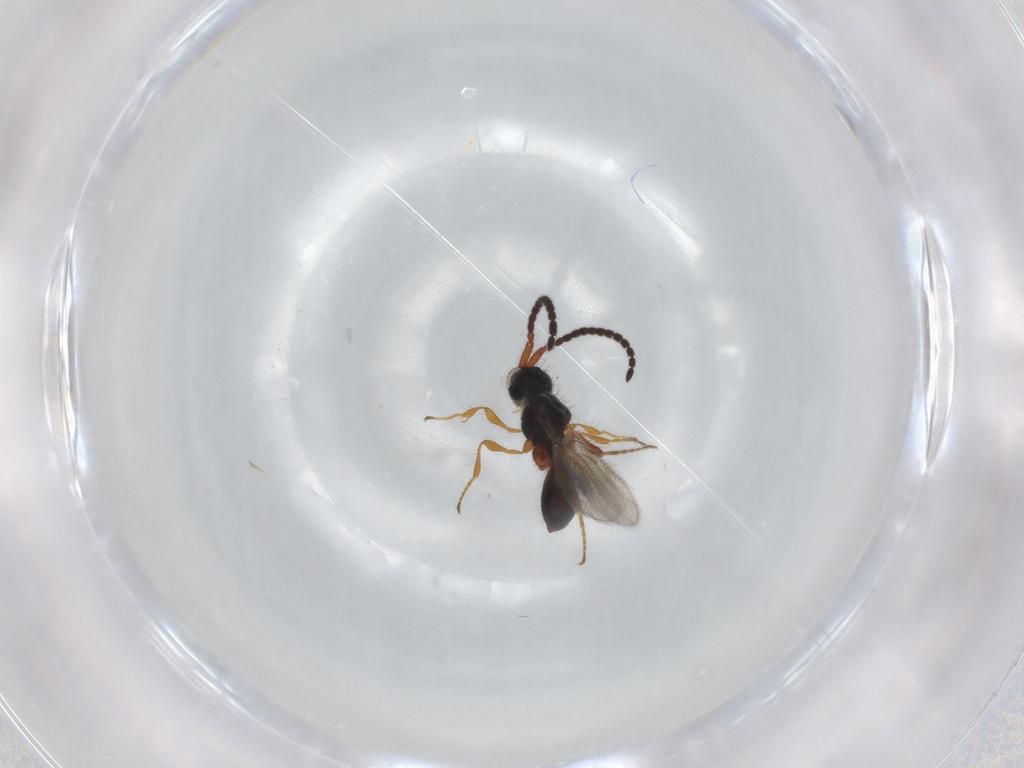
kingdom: Animalia
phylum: Arthropoda
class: Insecta
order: Hymenoptera
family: Diapriidae
